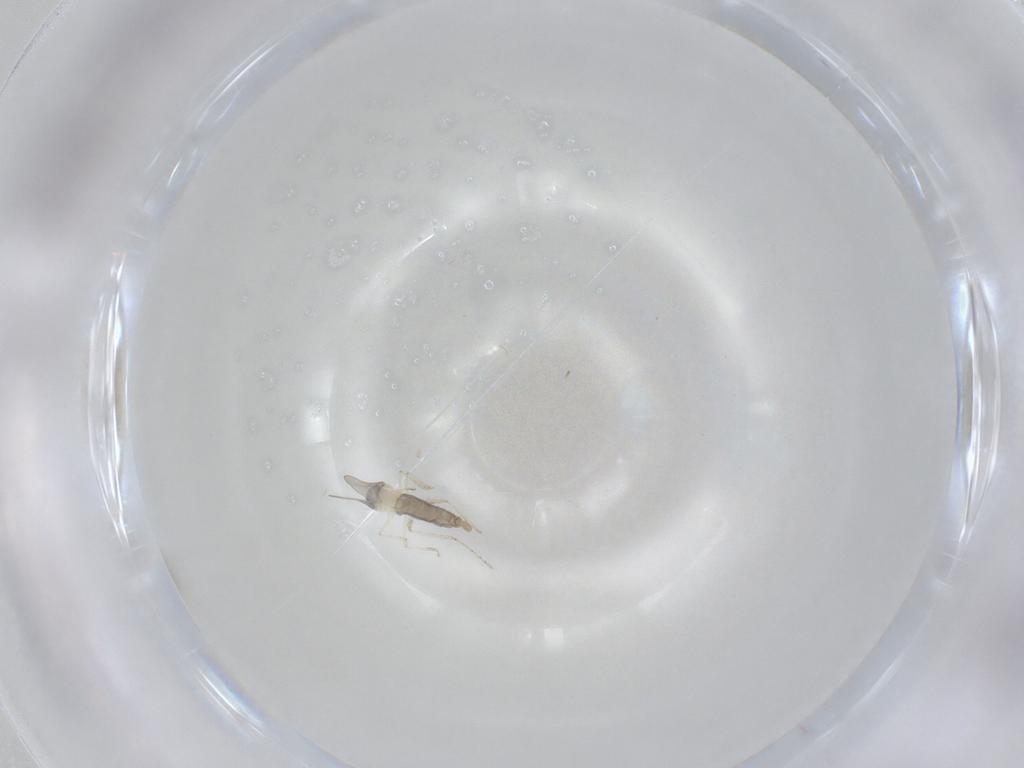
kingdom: Animalia
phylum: Arthropoda
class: Insecta
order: Diptera
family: Cecidomyiidae
